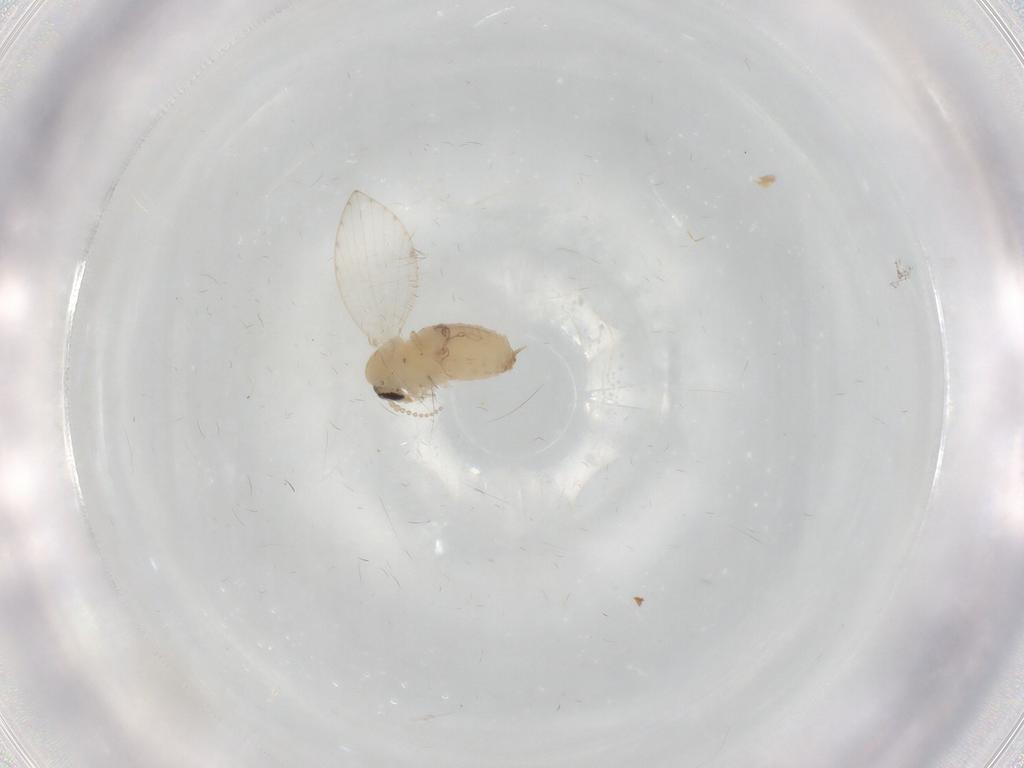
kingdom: Animalia
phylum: Arthropoda
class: Insecta
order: Diptera
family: Psychodidae
